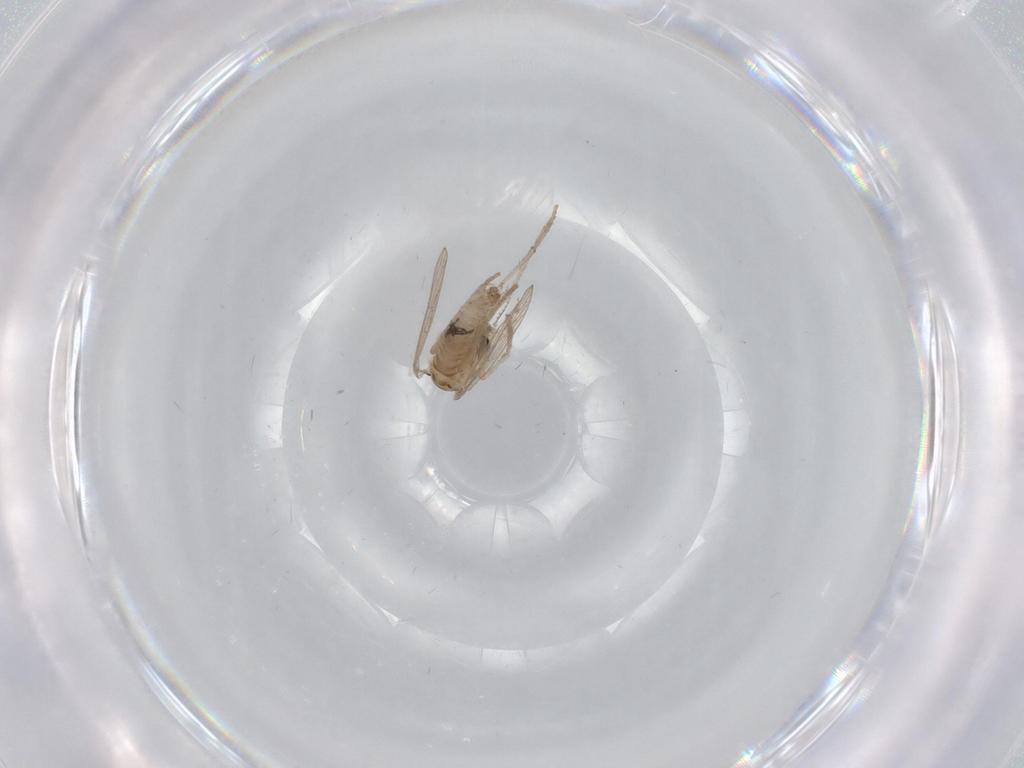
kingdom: Animalia
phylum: Arthropoda
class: Insecta
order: Diptera
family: Psychodidae
